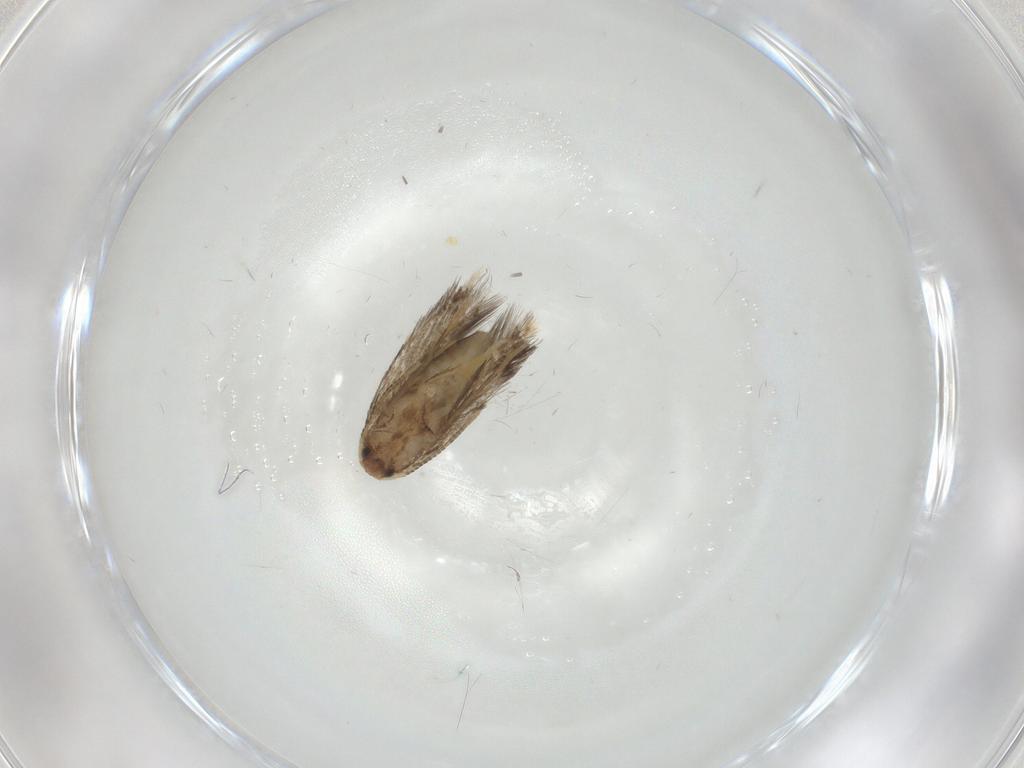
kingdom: Animalia
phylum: Arthropoda
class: Insecta
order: Lepidoptera
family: Nepticulidae
